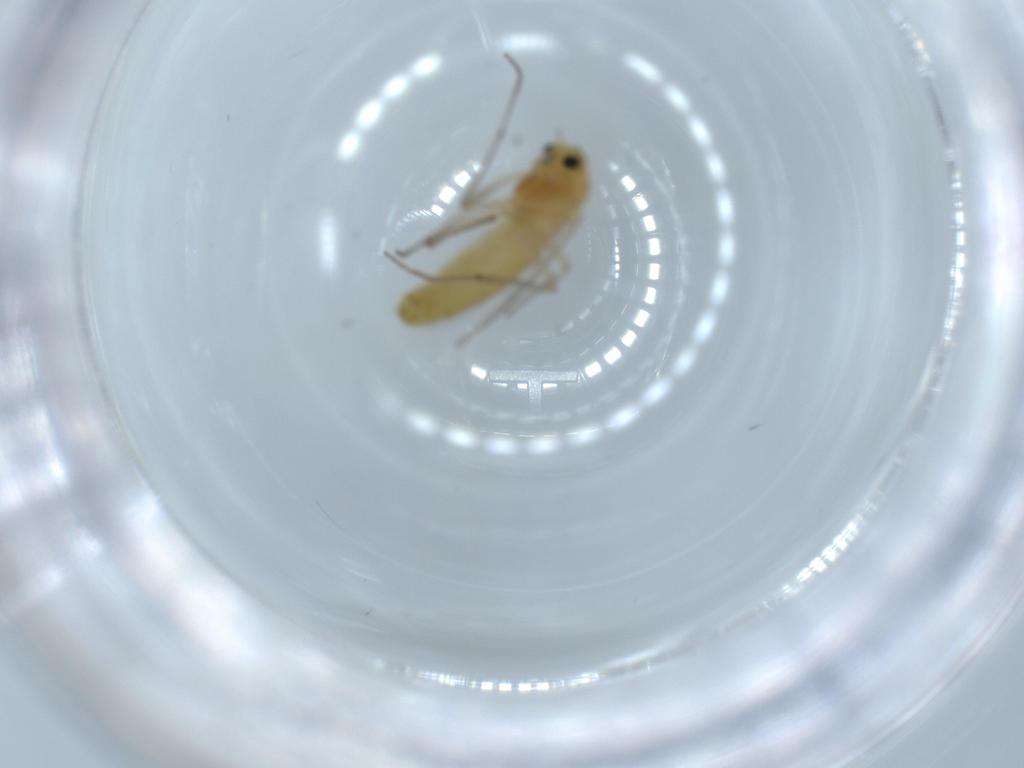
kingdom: Animalia
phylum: Arthropoda
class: Insecta
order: Diptera
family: Chironomidae
